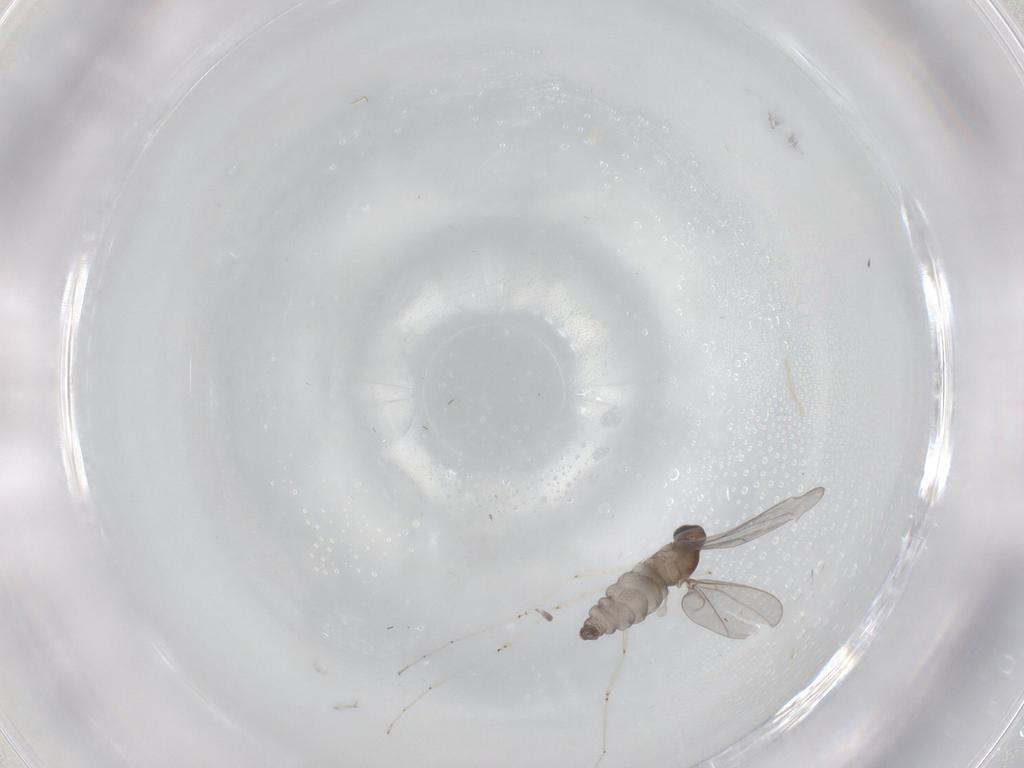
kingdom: Animalia
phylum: Arthropoda
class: Insecta
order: Diptera
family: Cecidomyiidae
